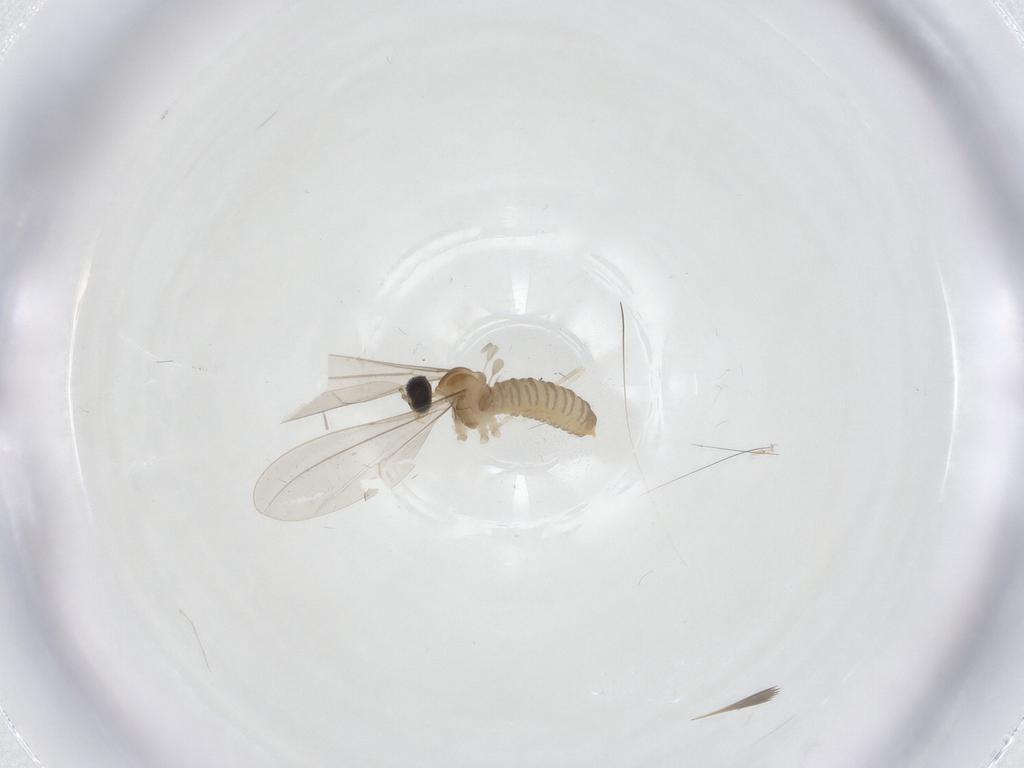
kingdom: Animalia
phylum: Arthropoda
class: Insecta
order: Diptera
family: Cecidomyiidae
